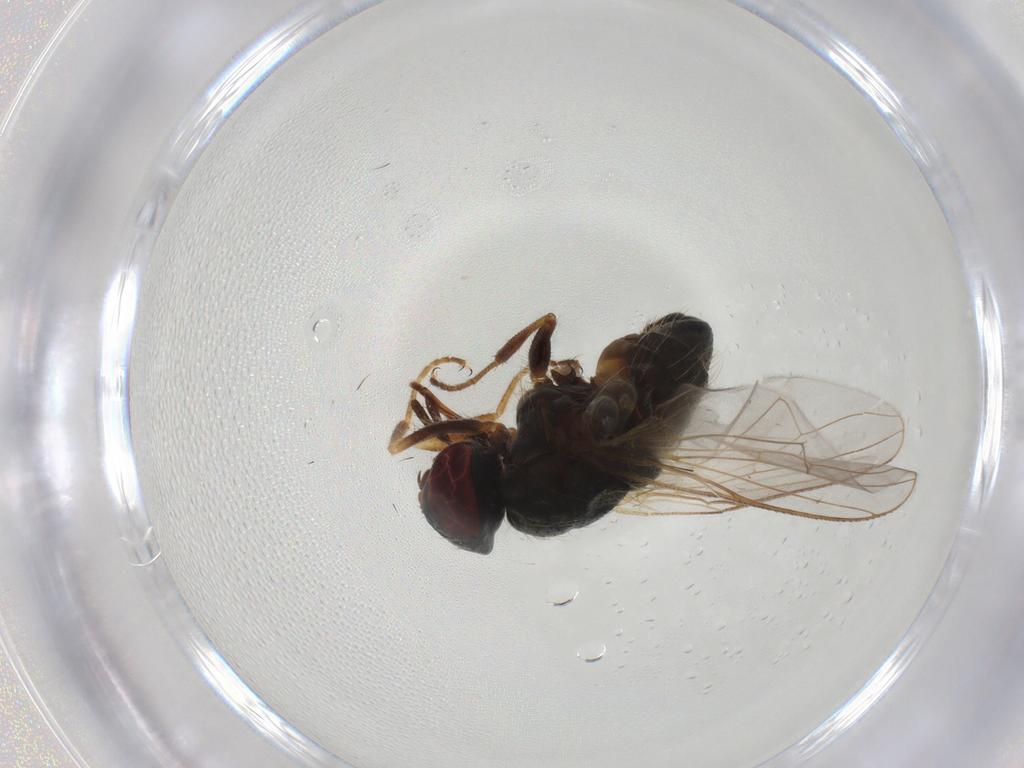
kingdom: Animalia
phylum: Arthropoda
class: Insecta
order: Diptera
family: Muscidae
